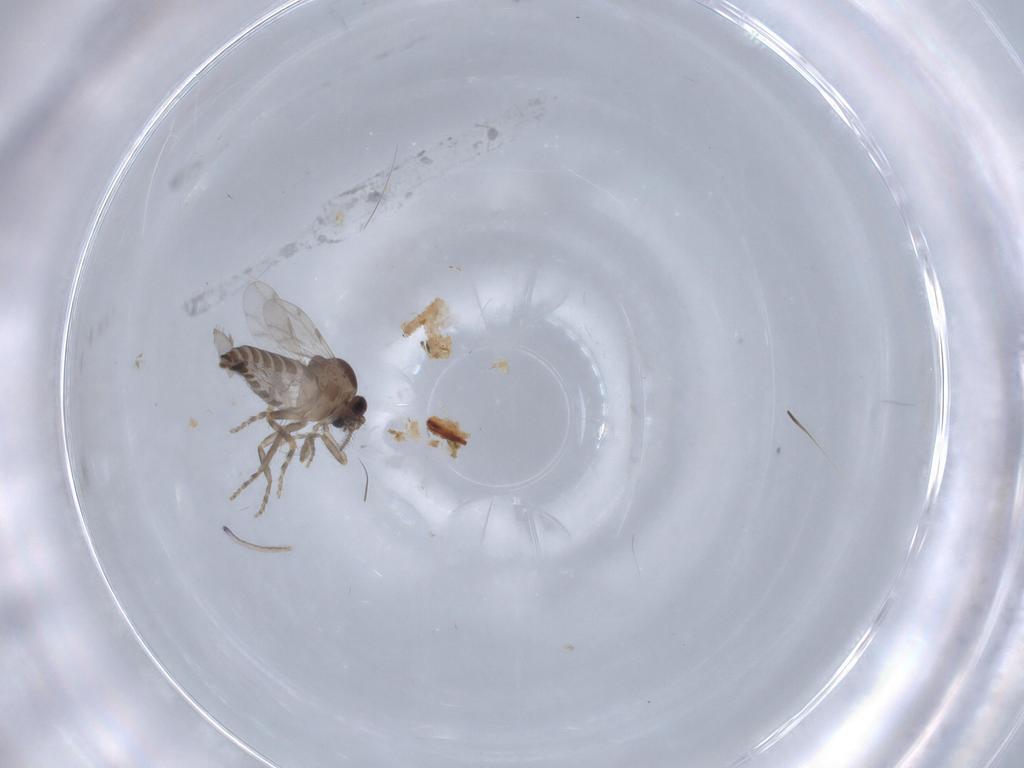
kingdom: Animalia
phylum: Arthropoda
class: Insecta
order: Diptera
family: Ceratopogonidae
